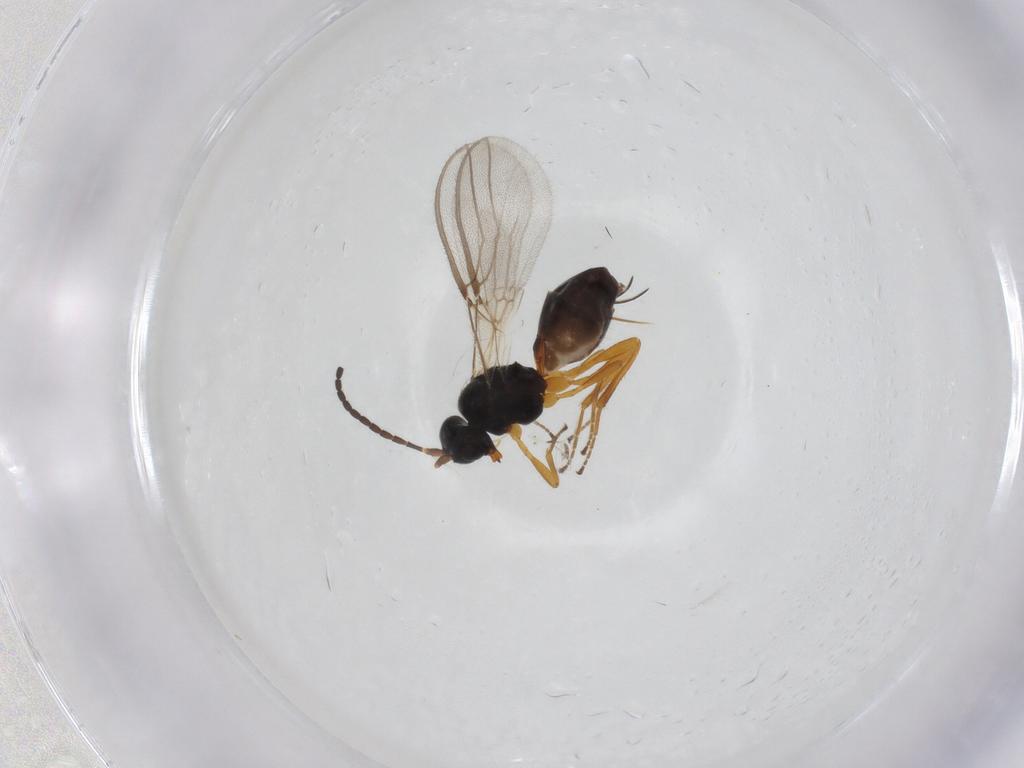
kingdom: Animalia
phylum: Arthropoda
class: Insecta
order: Hymenoptera
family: Braconidae
